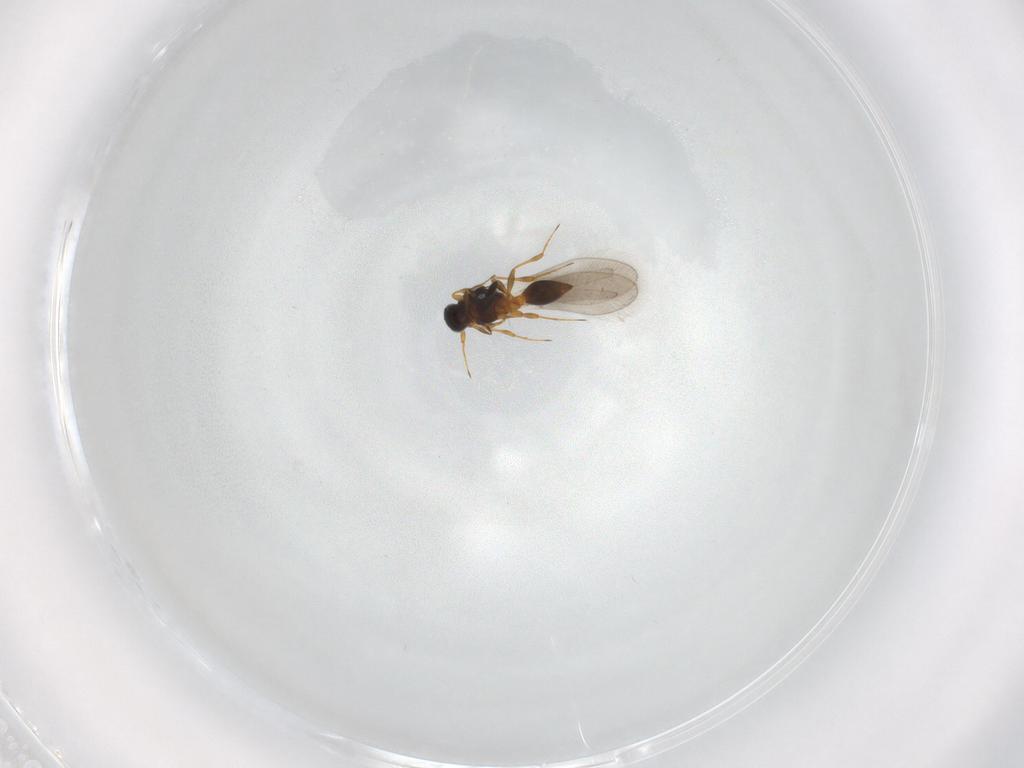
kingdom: Animalia
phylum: Arthropoda
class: Insecta
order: Hymenoptera
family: Platygastridae
